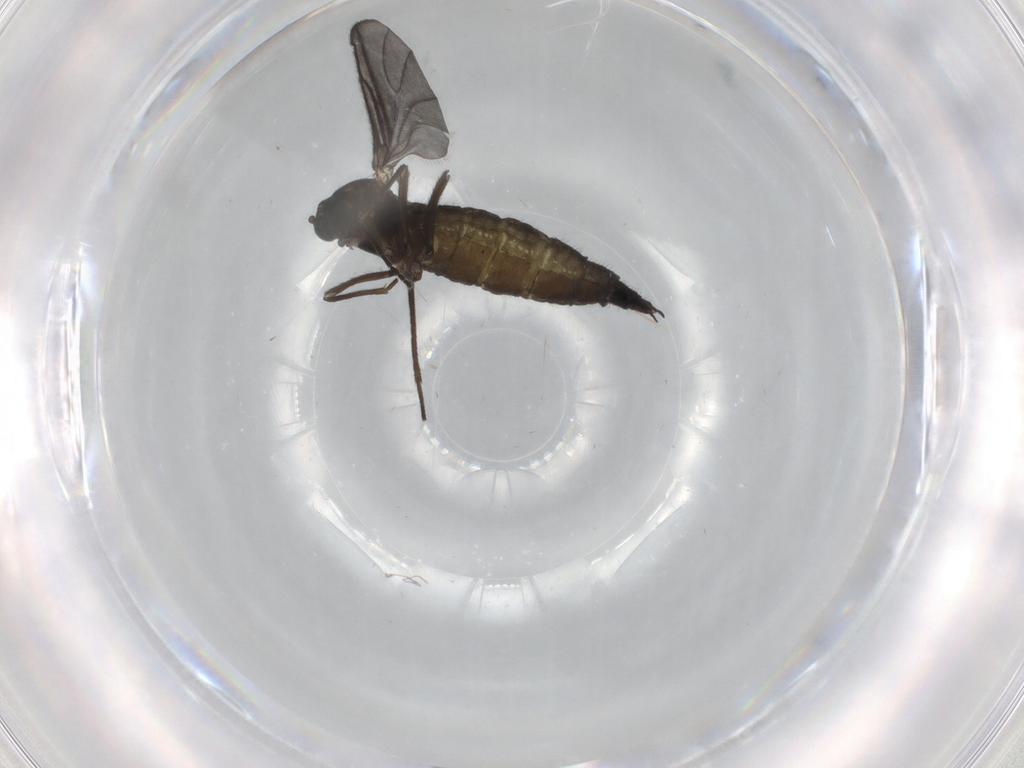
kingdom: Animalia
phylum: Arthropoda
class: Insecta
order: Diptera
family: Sciaridae
